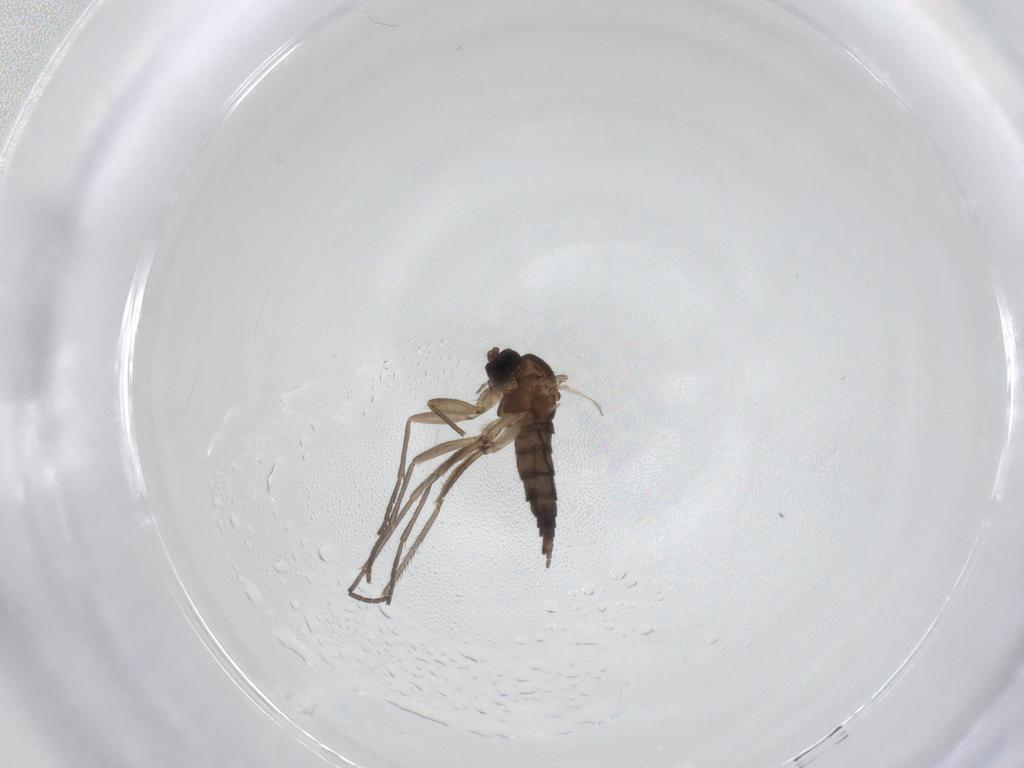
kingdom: Animalia
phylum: Arthropoda
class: Insecta
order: Diptera
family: Sciaridae
